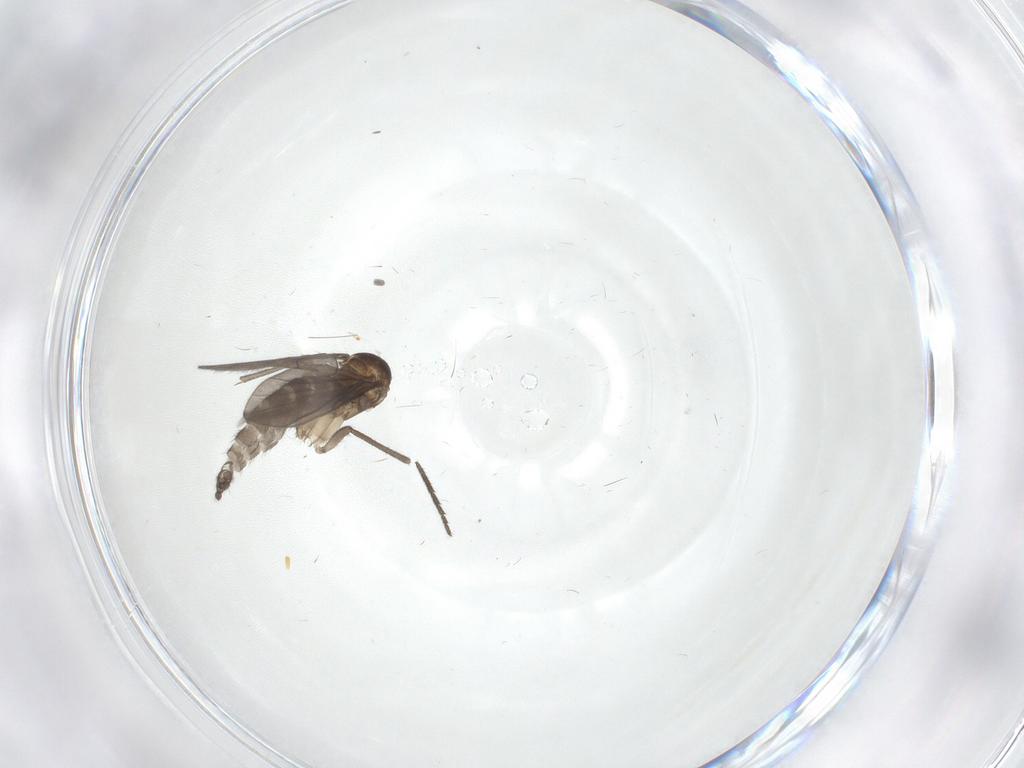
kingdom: Animalia
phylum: Arthropoda
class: Insecta
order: Diptera
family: Sciaridae
